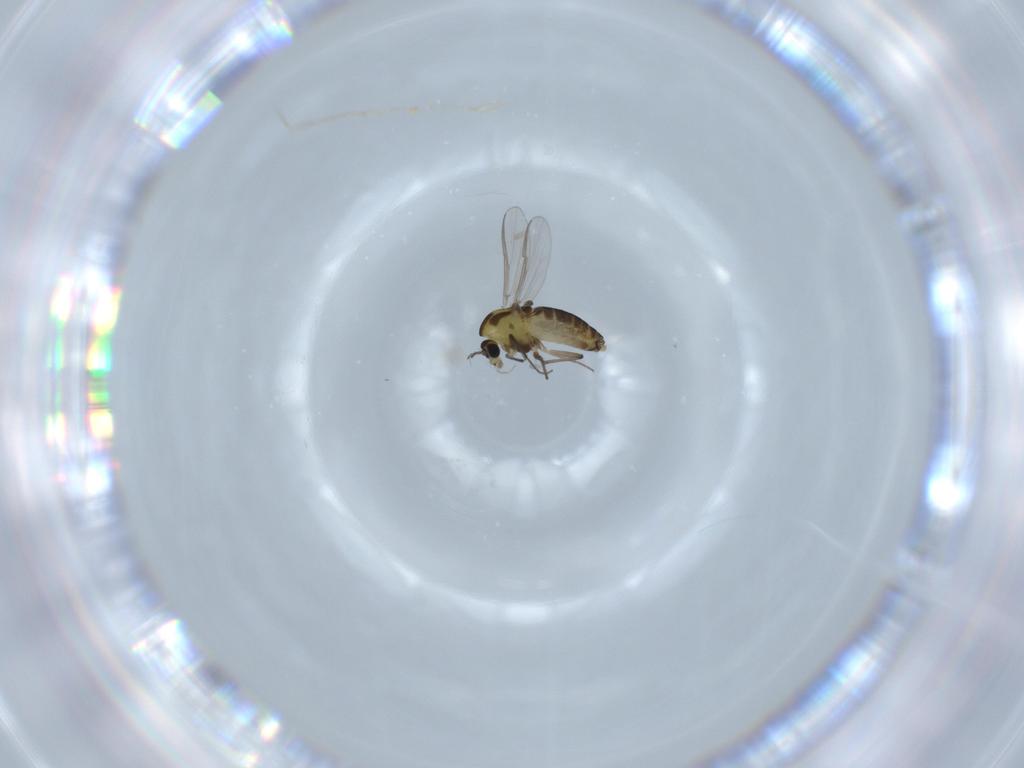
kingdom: Animalia
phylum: Arthropoda
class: Insecta
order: Diptera
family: Chironomidae
